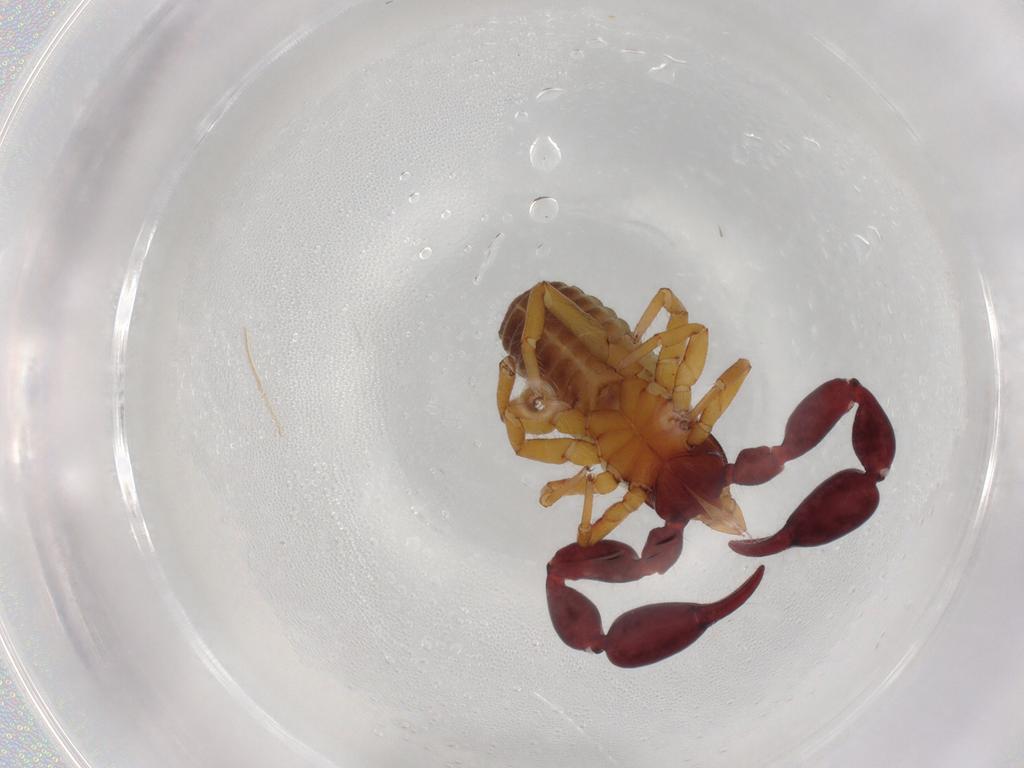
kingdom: Animalia
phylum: Arthropoda
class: Arachnida
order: Pseudoscorpiones
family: Chernetidae
